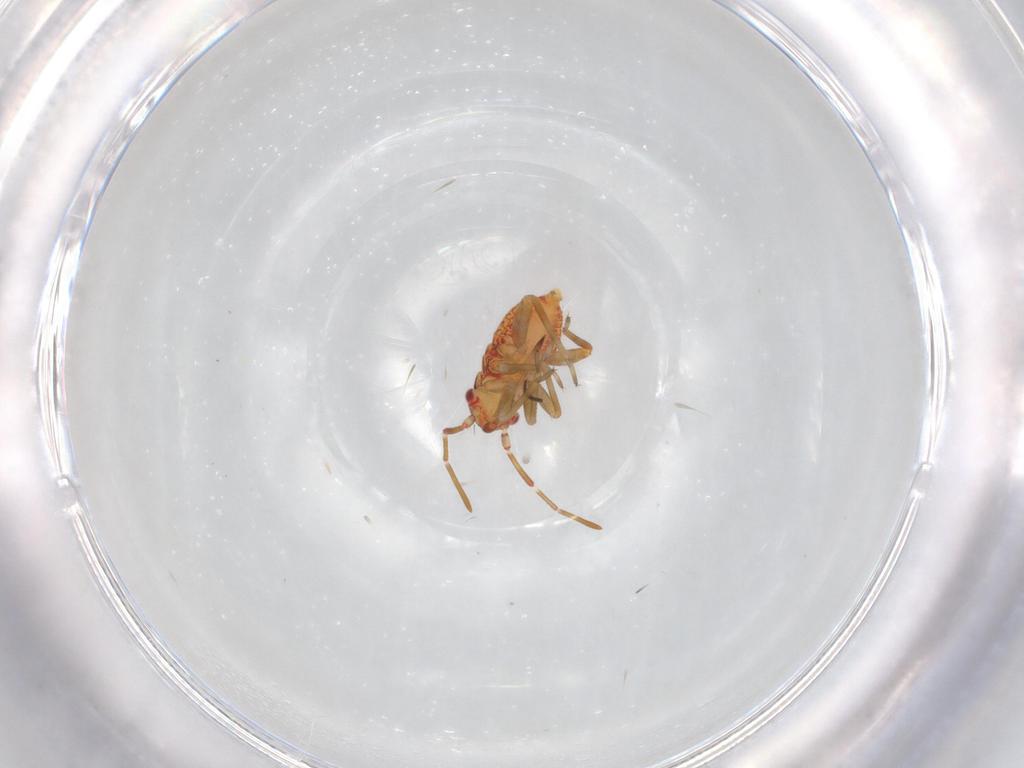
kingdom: Animalia
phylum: Arthropoda
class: Insecta
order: Hemiptera
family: Miridae
